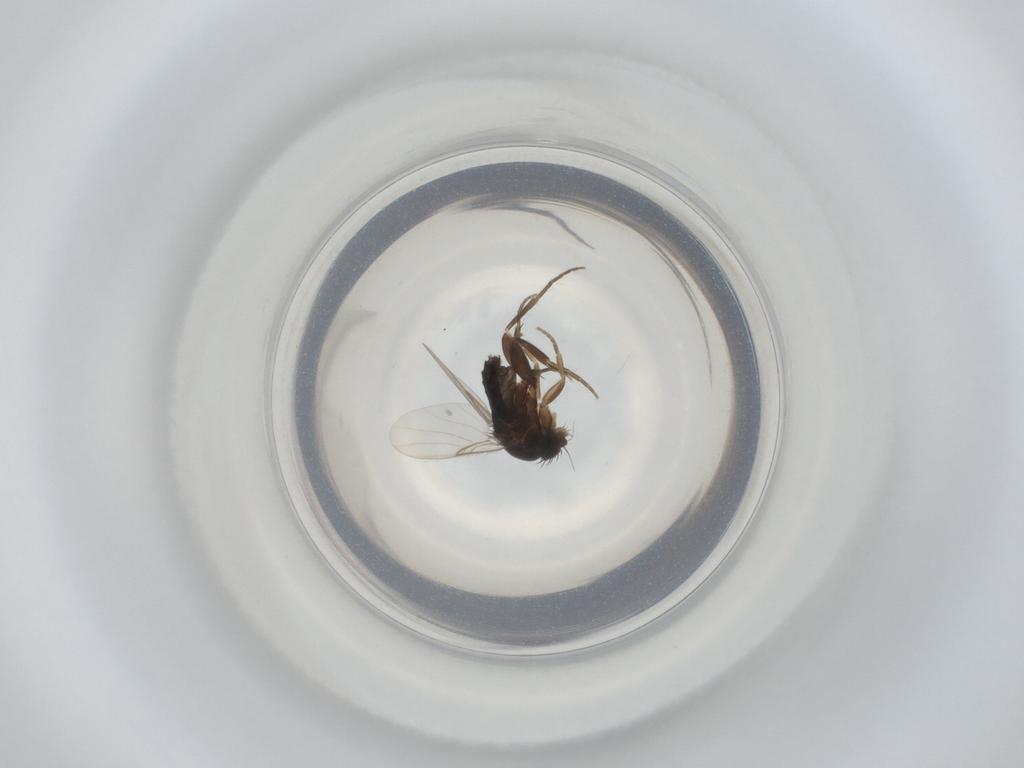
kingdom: Animalia
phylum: Arthropoda
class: Insecta
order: Diptera
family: Phoridae
